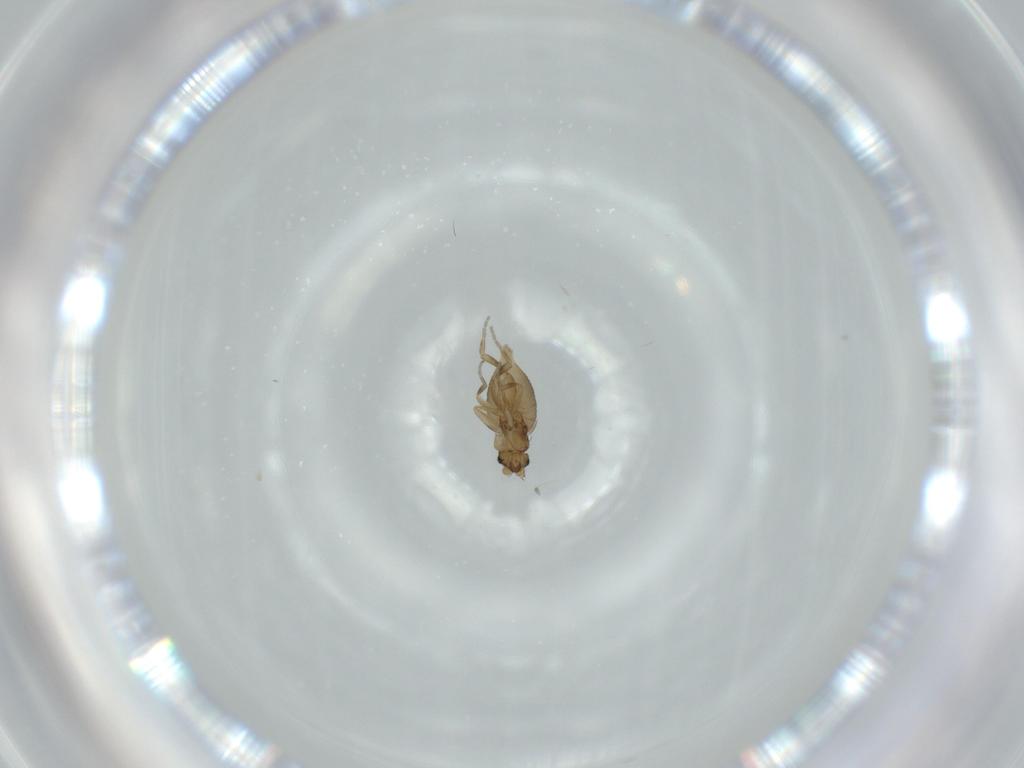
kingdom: Animalia
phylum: Arthropoda
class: Insecta
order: Diptera
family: Phoridae
